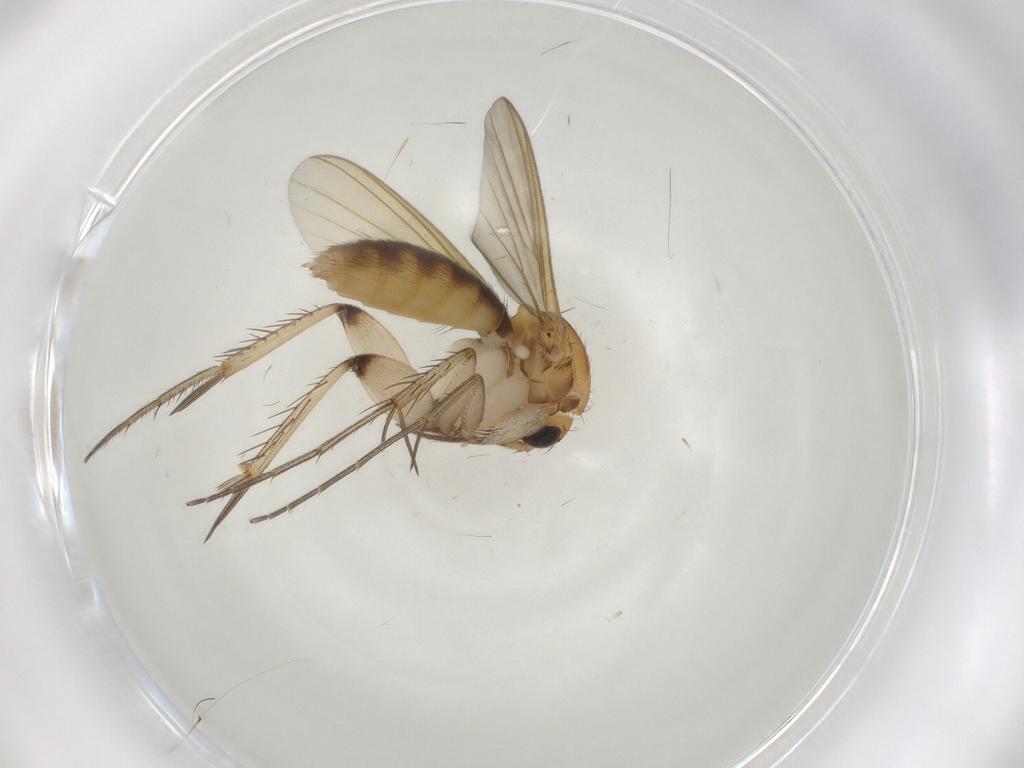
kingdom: Animalia
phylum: Arthropoda
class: Insecta
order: Diptera
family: Mycetophilidae
